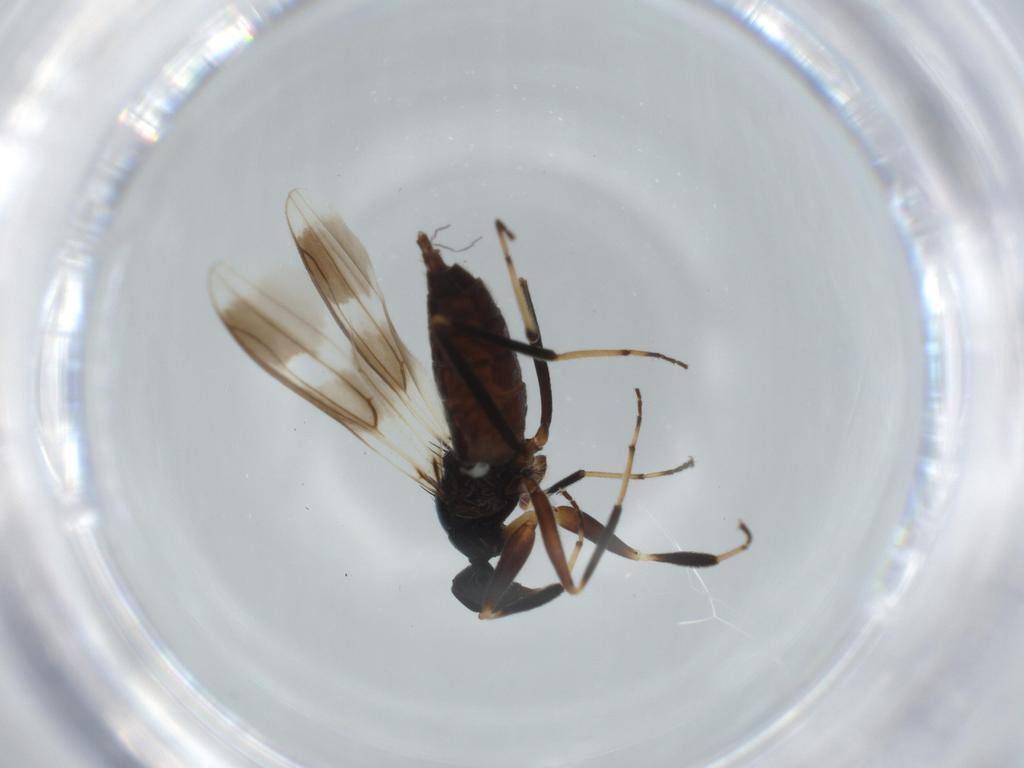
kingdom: Animalia
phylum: Arthropoda
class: Insecta
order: Diptera
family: Hybotidae
